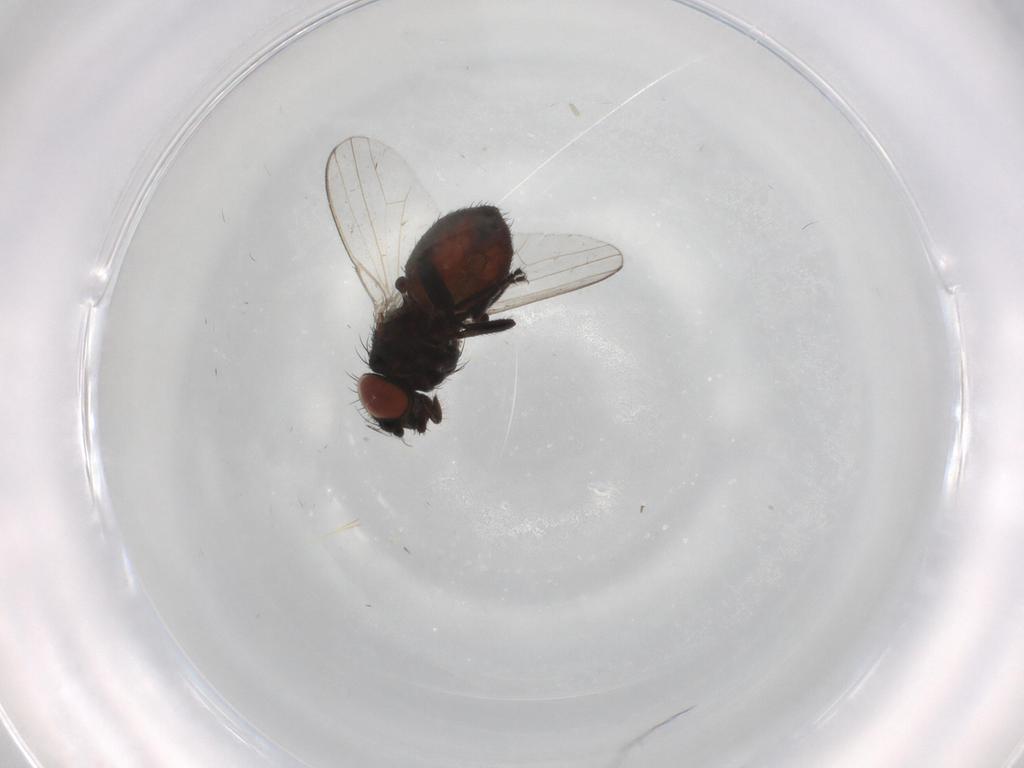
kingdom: Animalia
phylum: Arthropoda
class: Insecta
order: Diptera
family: Milichiidae
